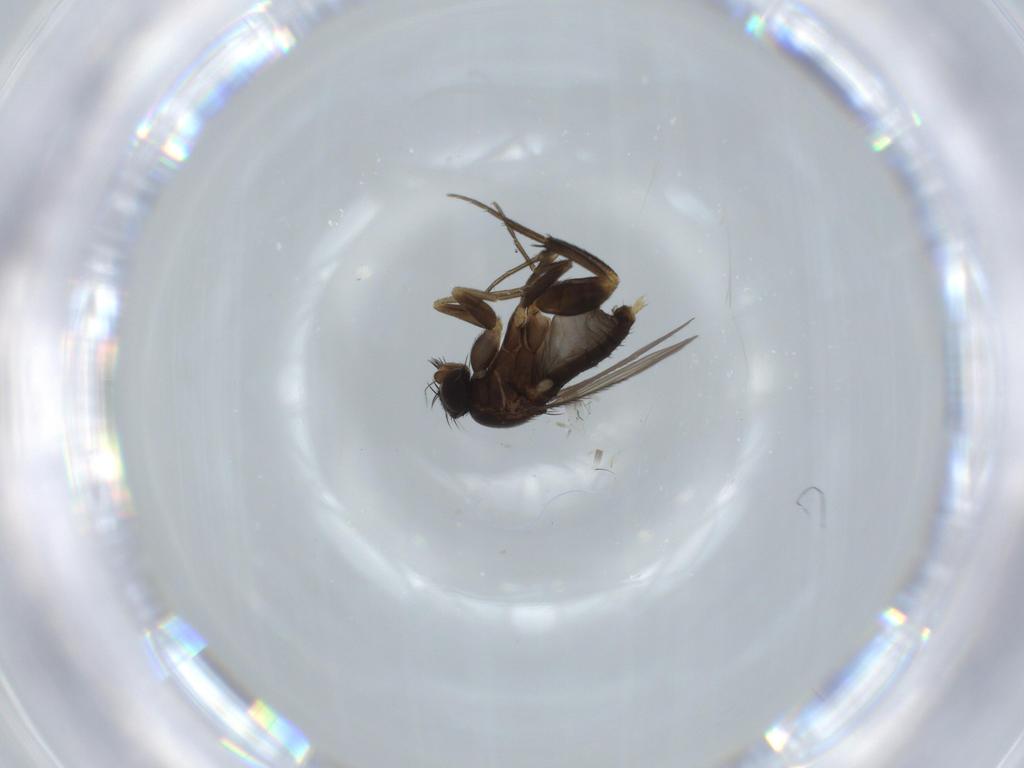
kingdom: Animalia
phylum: Arthropoda
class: Insecta
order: Diptera
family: Phoridae
